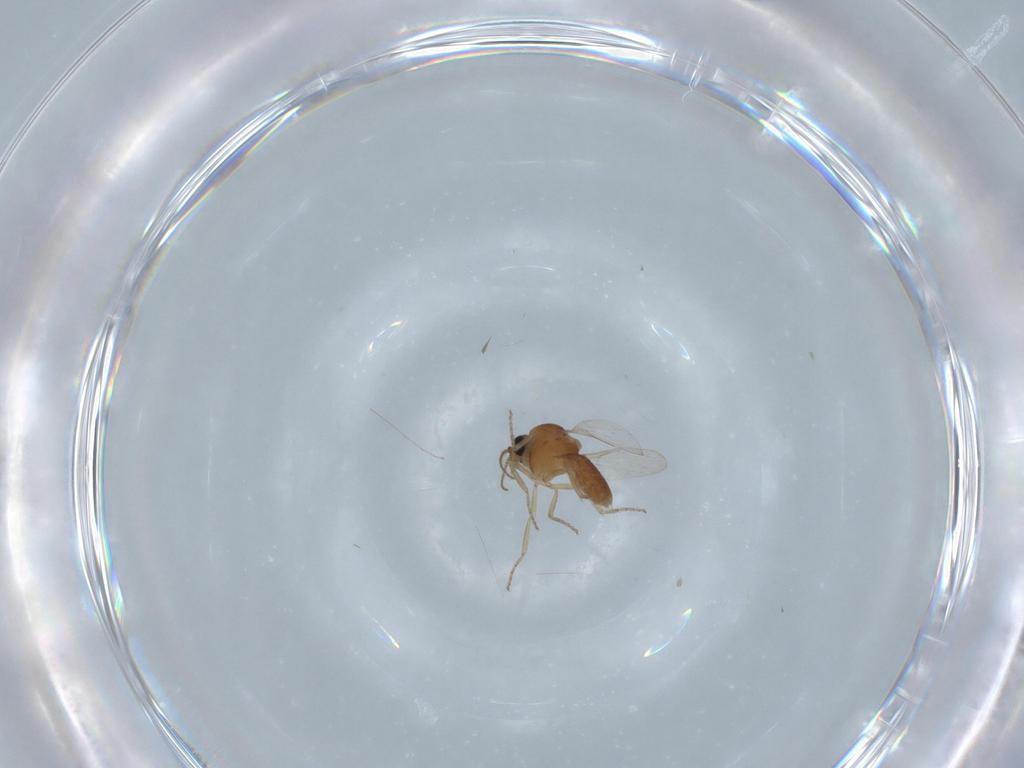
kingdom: Animalia
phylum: Arthropoda
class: Insecta
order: Diptera
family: Ceratopogonidae
